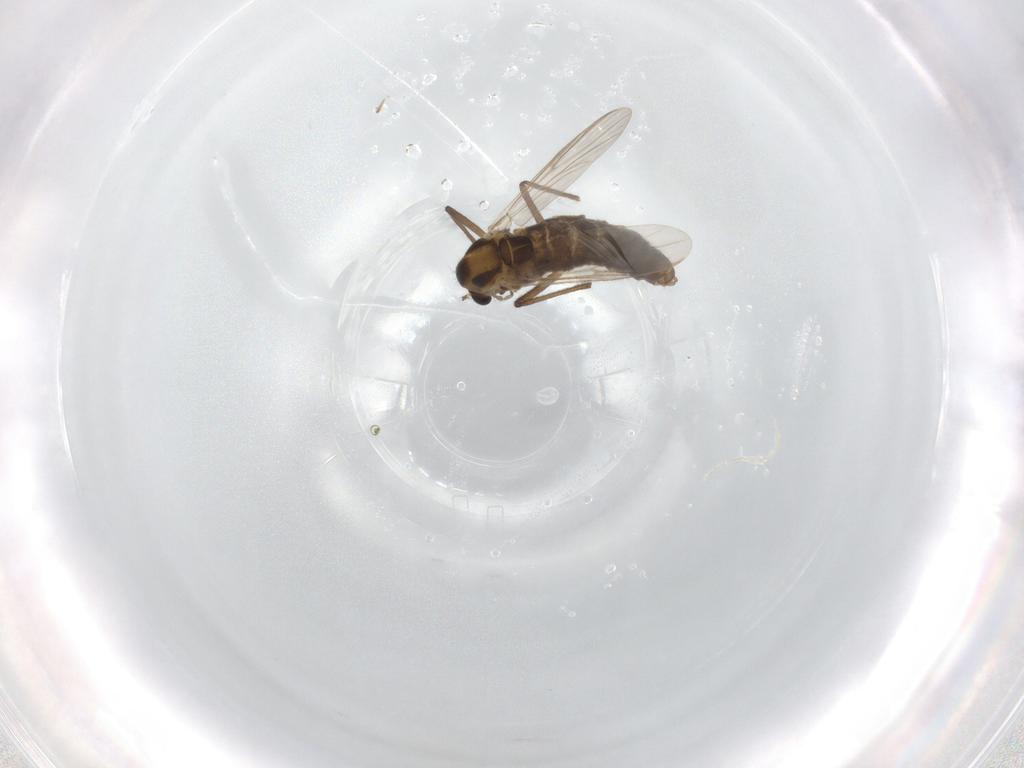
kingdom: Animalia
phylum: Arthropoda
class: Insecta
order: Diptera
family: Chironomidae
